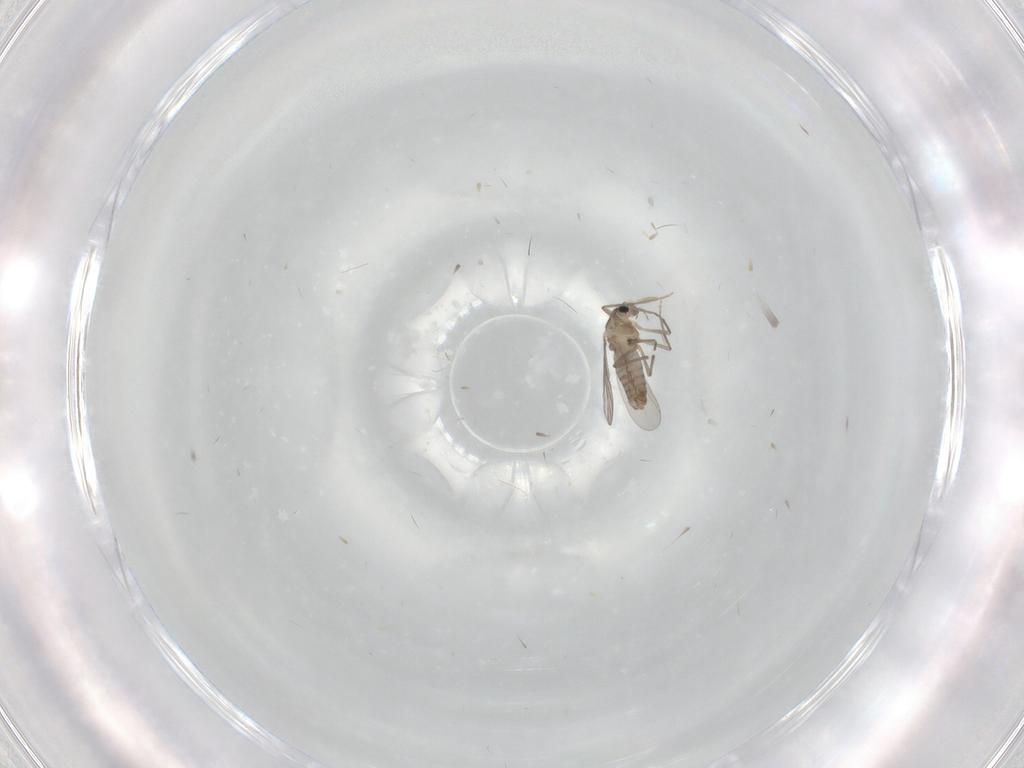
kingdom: Animalia
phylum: Arthropoda
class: Insecta
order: Diptera
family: Chironomidae
